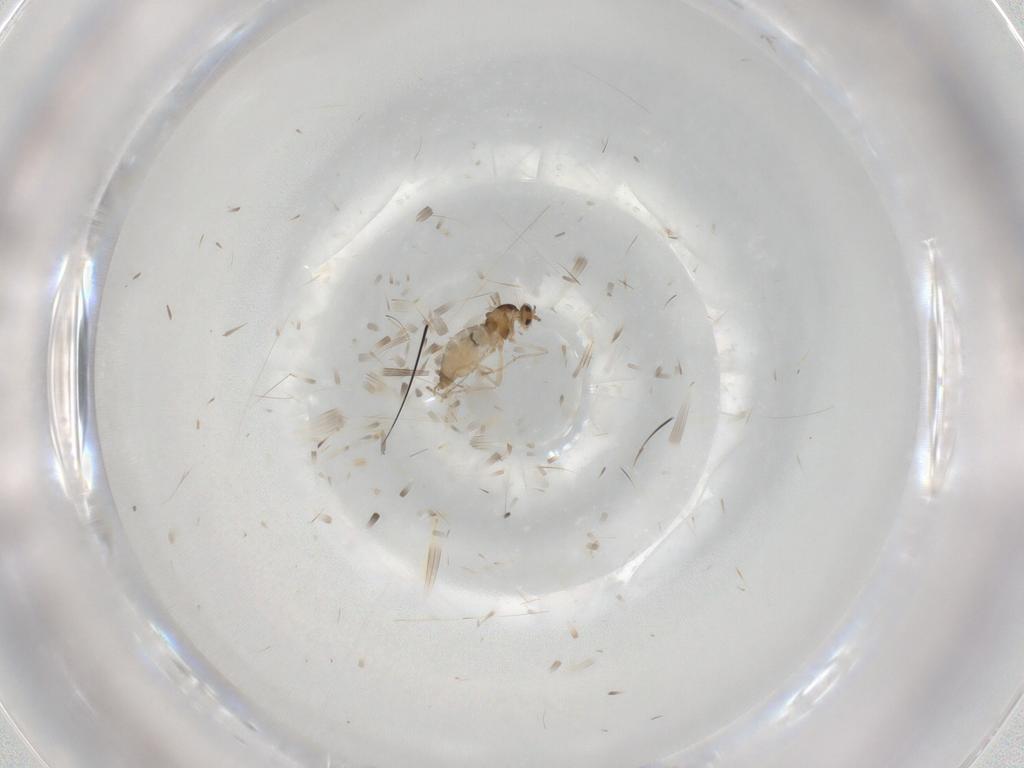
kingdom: Animalia
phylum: Arthropoda
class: Insecta
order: Diptera
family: Cecidomyiidae
